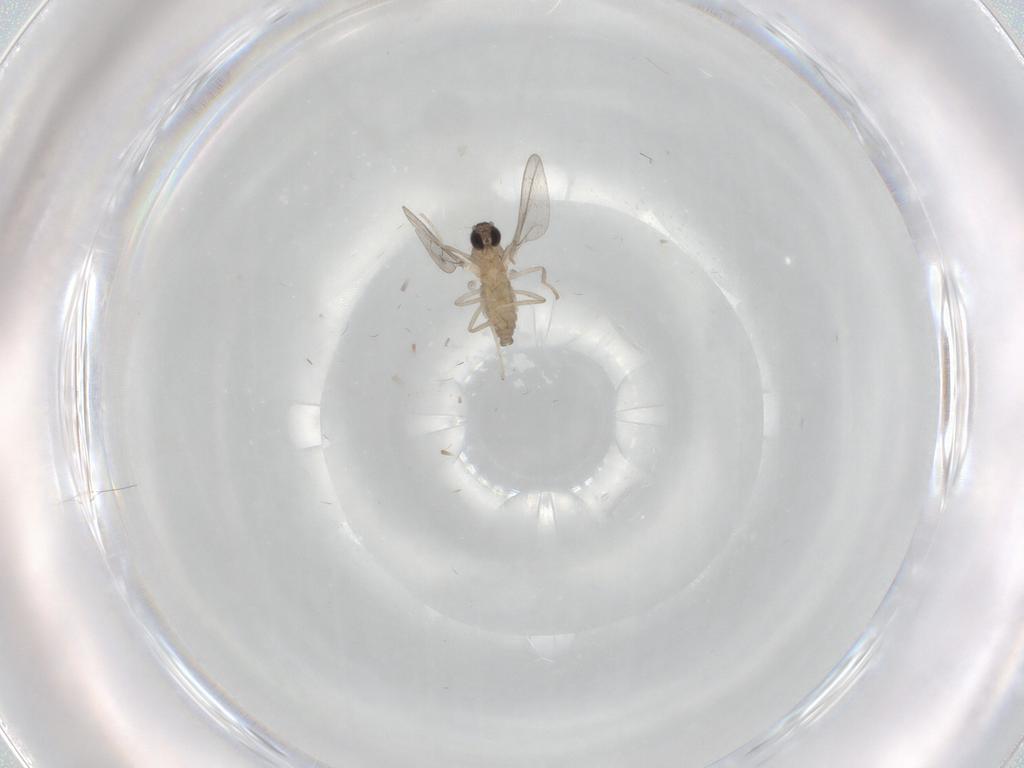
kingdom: Animalia
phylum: Arthropoda
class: Insecta
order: Diptera
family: Cecidomyiidae
